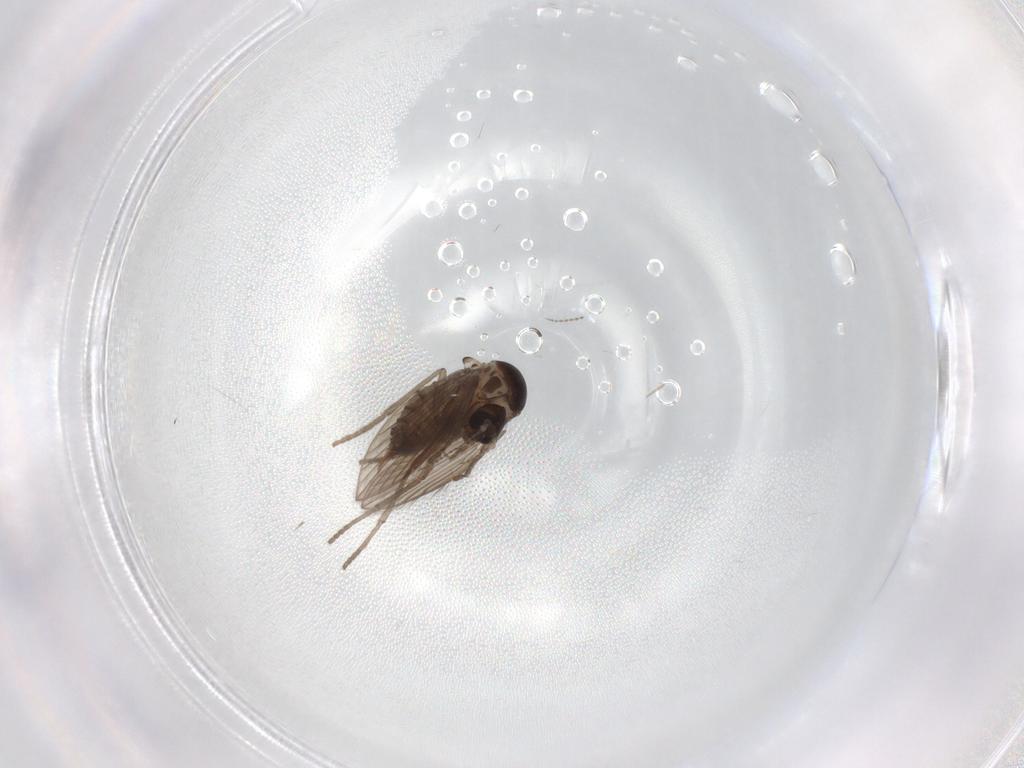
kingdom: Animalia
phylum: Arthropoda
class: Insecta
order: Diptera
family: Psychodidae
